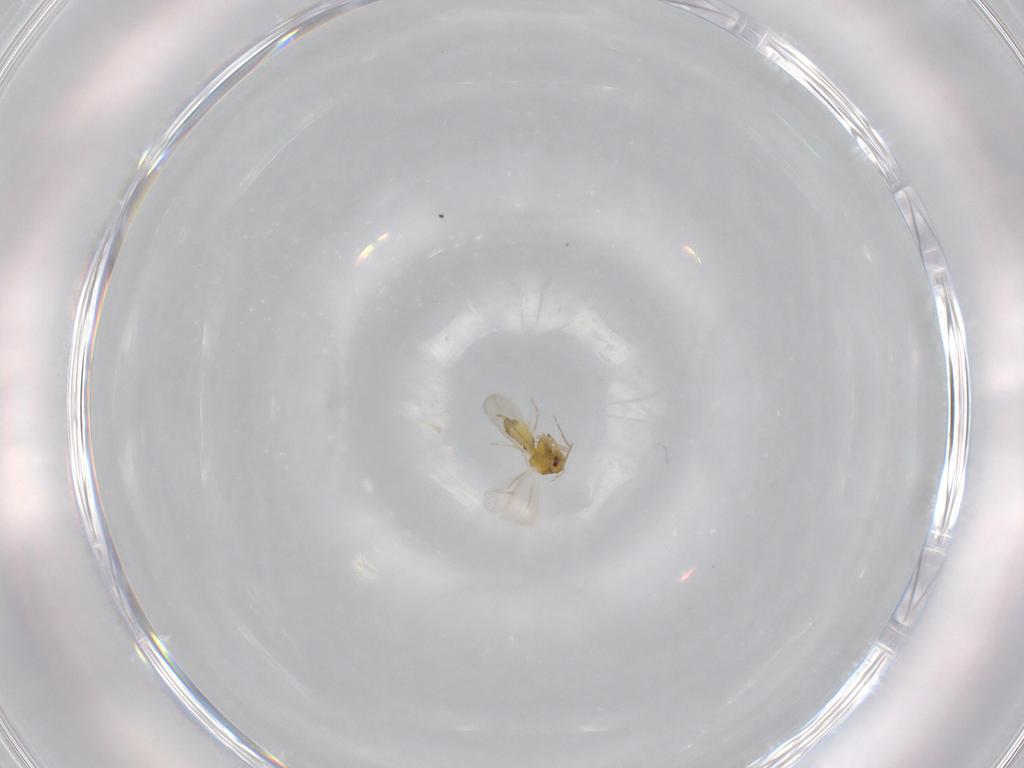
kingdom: Animalia
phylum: Arthropoda
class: Insecta
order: Hemiptera
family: Aleyrodidae
